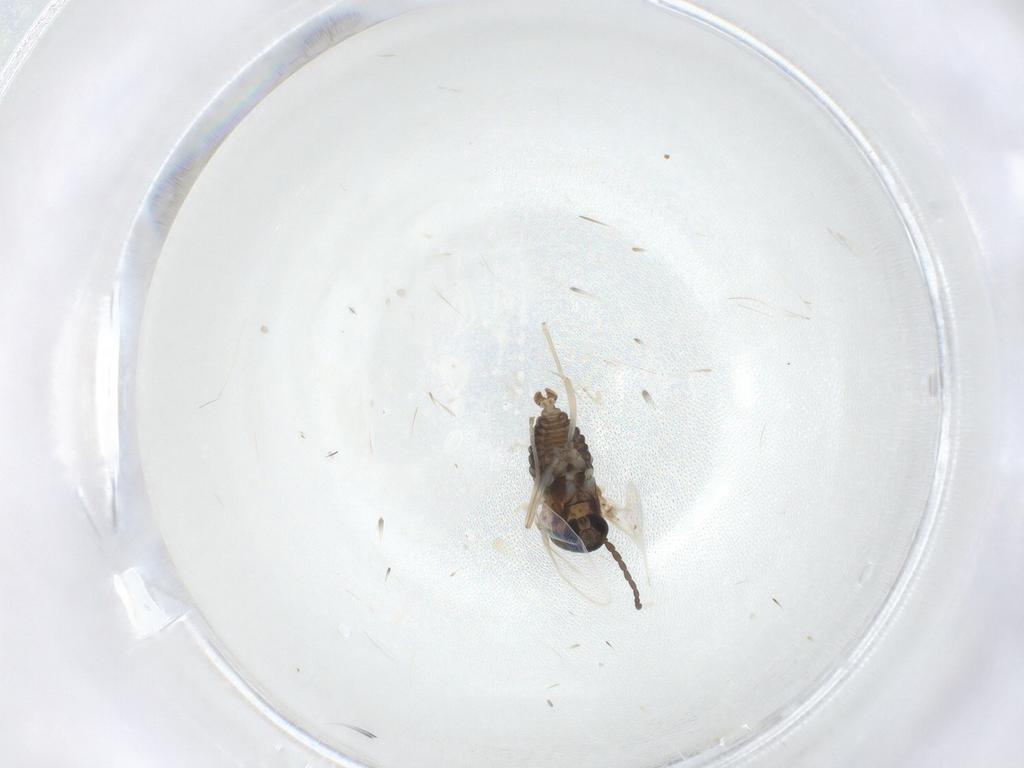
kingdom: Animalia
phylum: Arthropoda
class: Insecta
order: Diptera
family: Cecidomyiidae
